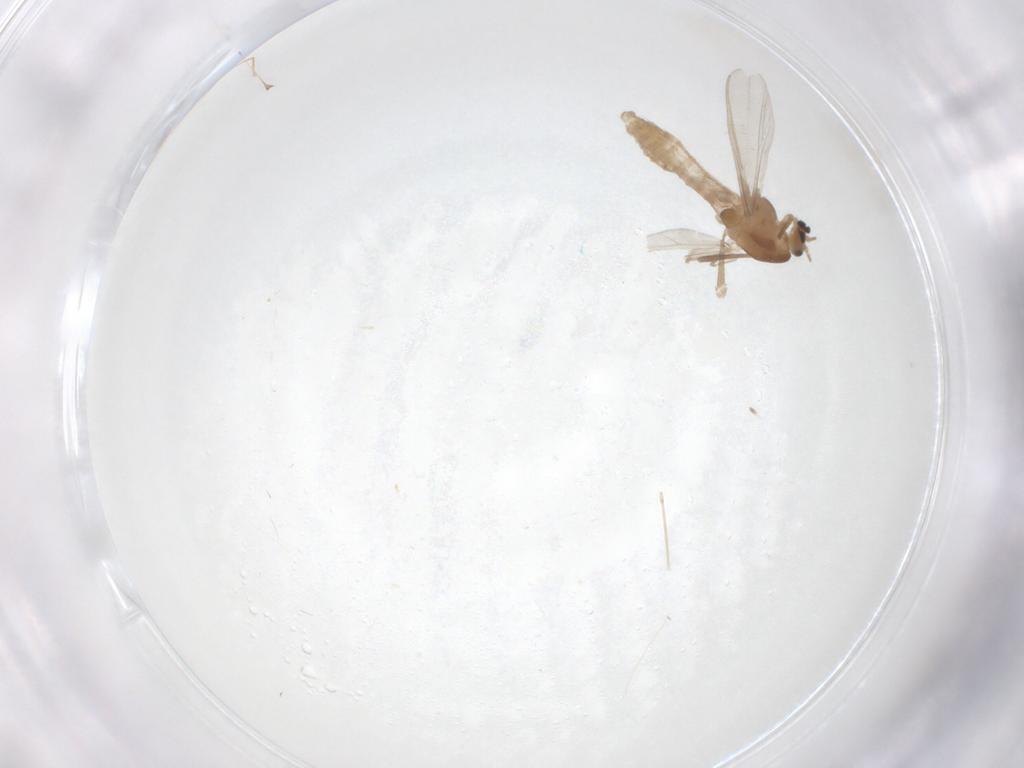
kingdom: Animalia
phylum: Arthropoda
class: Insecta
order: Diptera
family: Chironomidae
